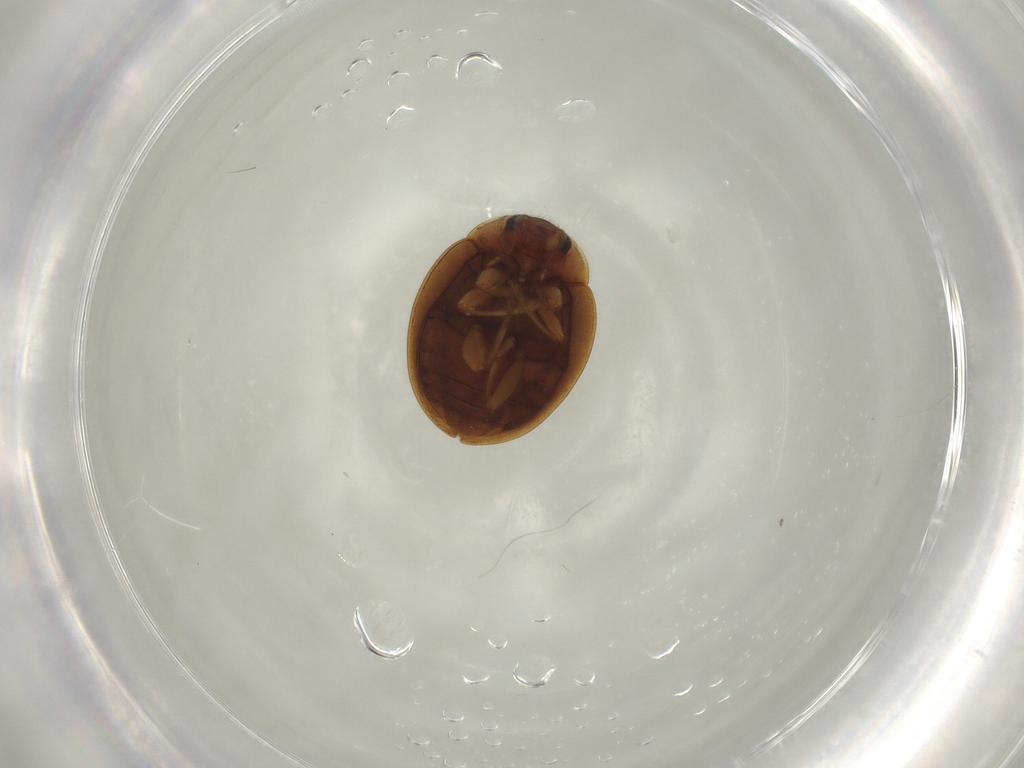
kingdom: Animalia
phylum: Arthropoda
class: Insecta
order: Coleoptera
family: Coccinellidae
